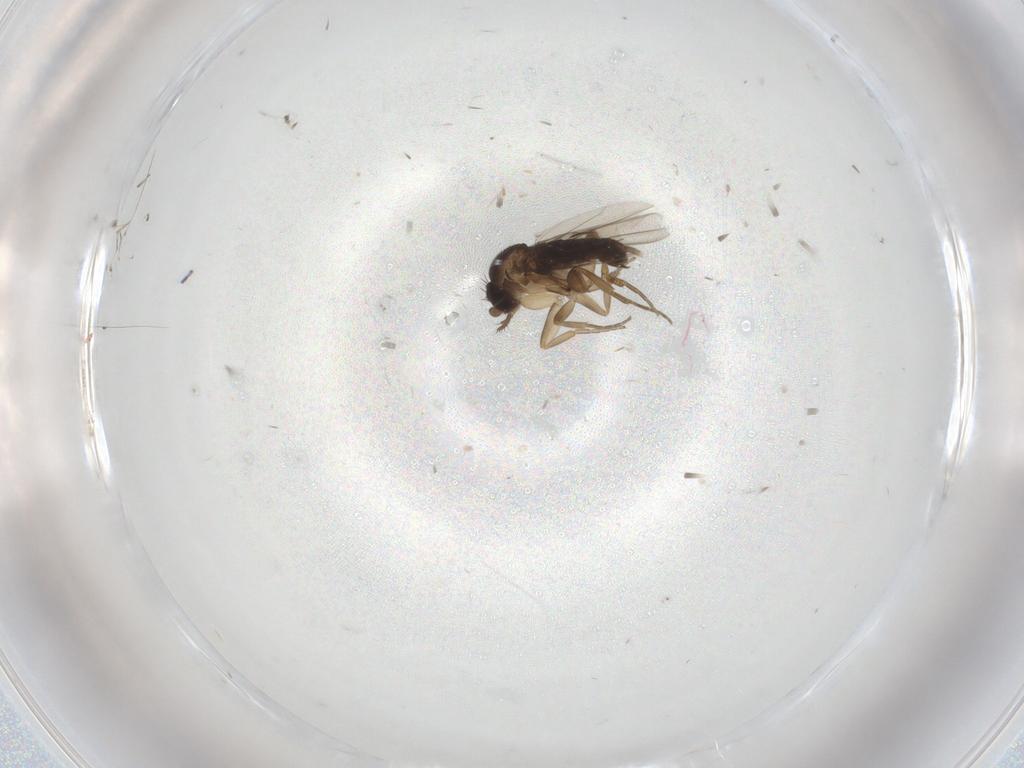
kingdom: Animalia
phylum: Arthropoda
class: Insecta
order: Diptera
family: Phoridae
